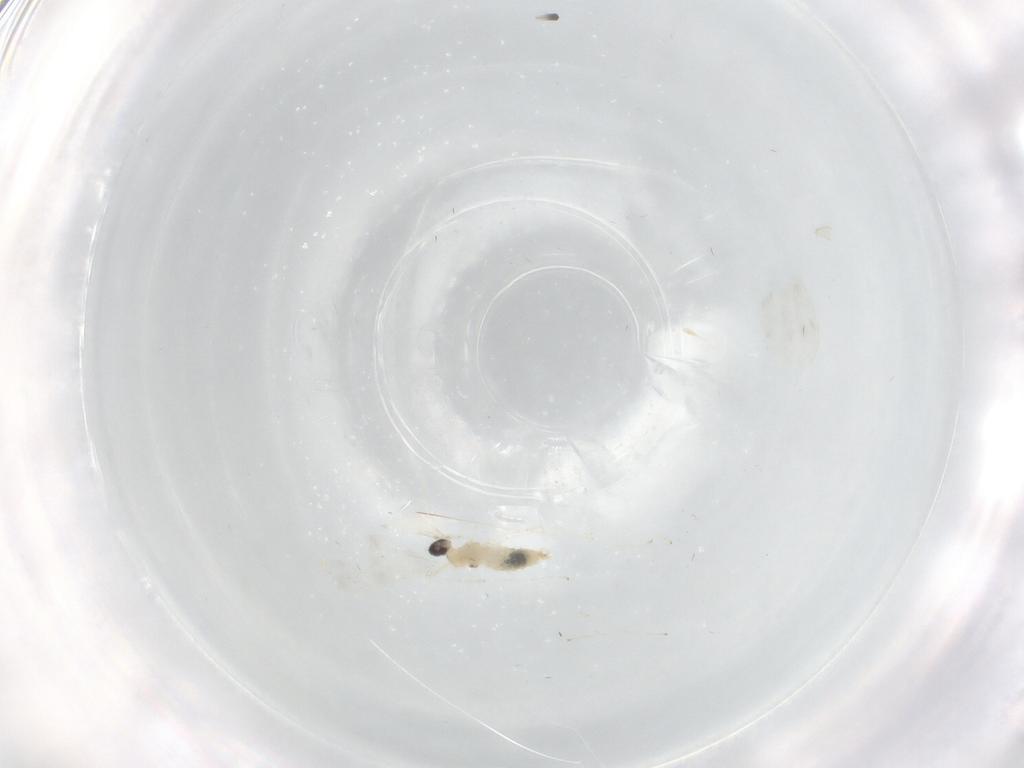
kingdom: Animalia
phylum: Arthropoda
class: Insecta
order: Diptera
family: Cecidomyiidae
